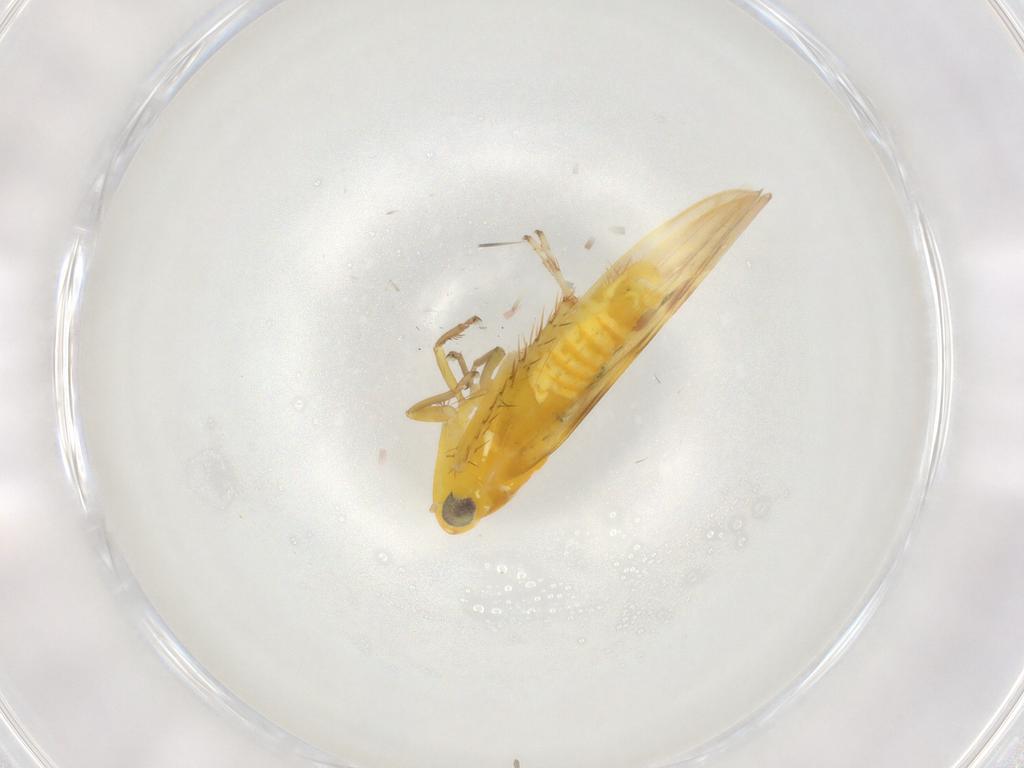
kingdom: Animalia
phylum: Arthropoda
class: Insecta
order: Hemiptera
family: Cicadellidae
